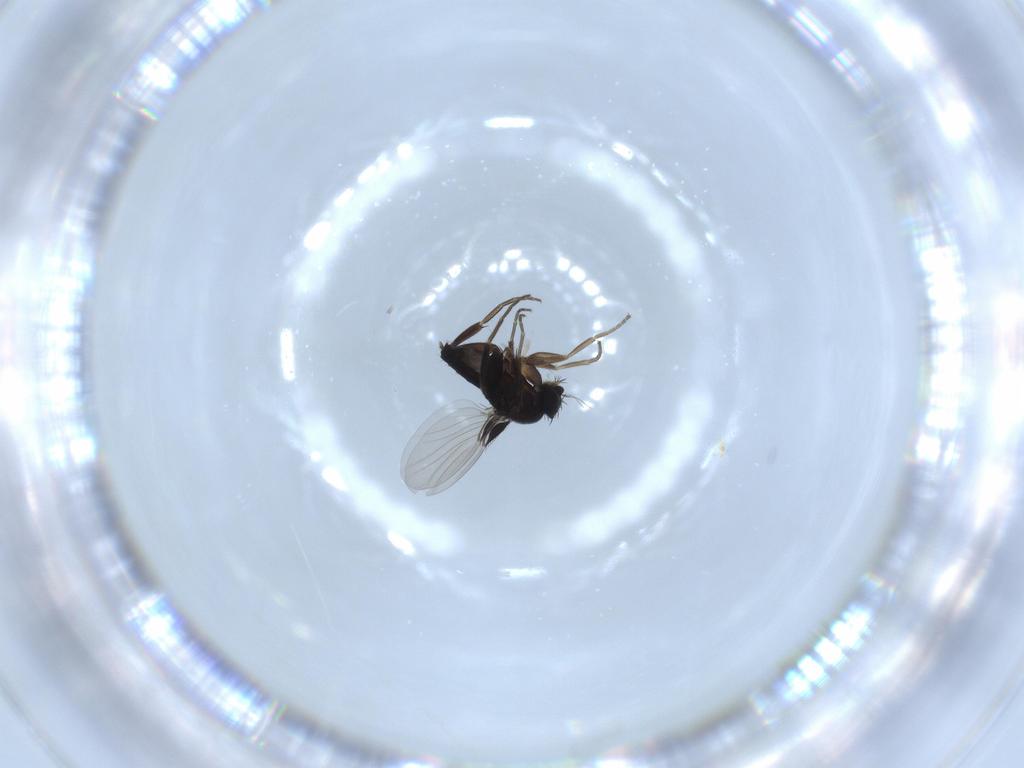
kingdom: Animalia
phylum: Arthropoda
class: Insecta
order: Diptera
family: Phoridae
